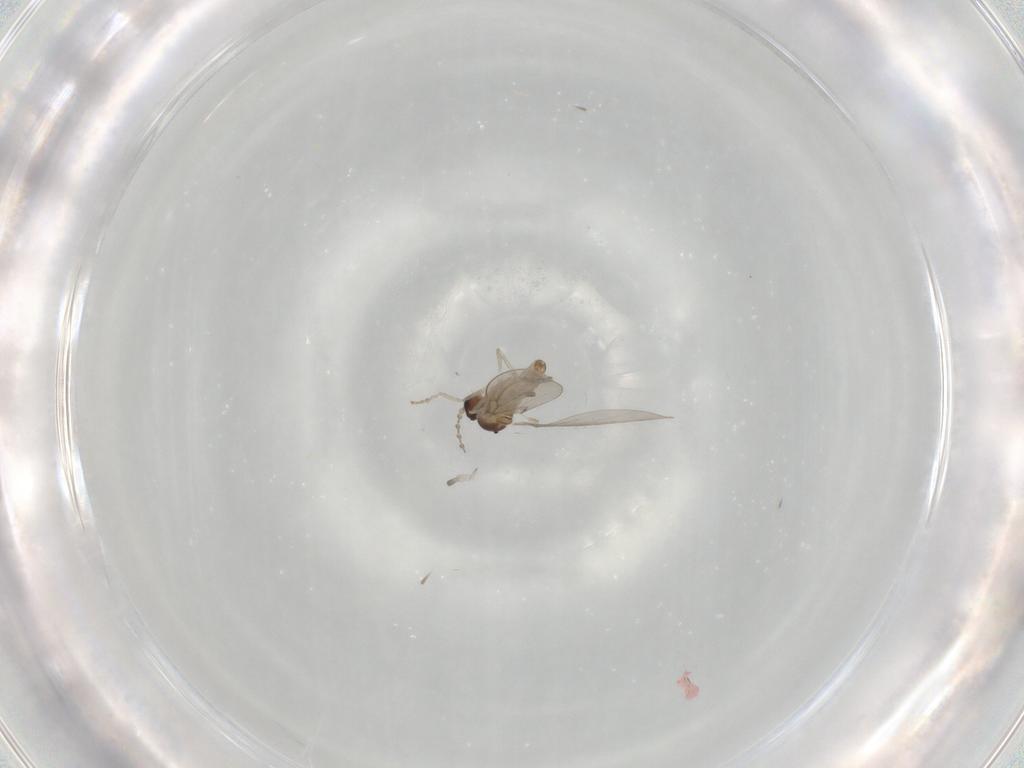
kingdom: Animalia
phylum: Arthropoda
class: Insecta
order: Diptera
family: Cecidomyiidae
